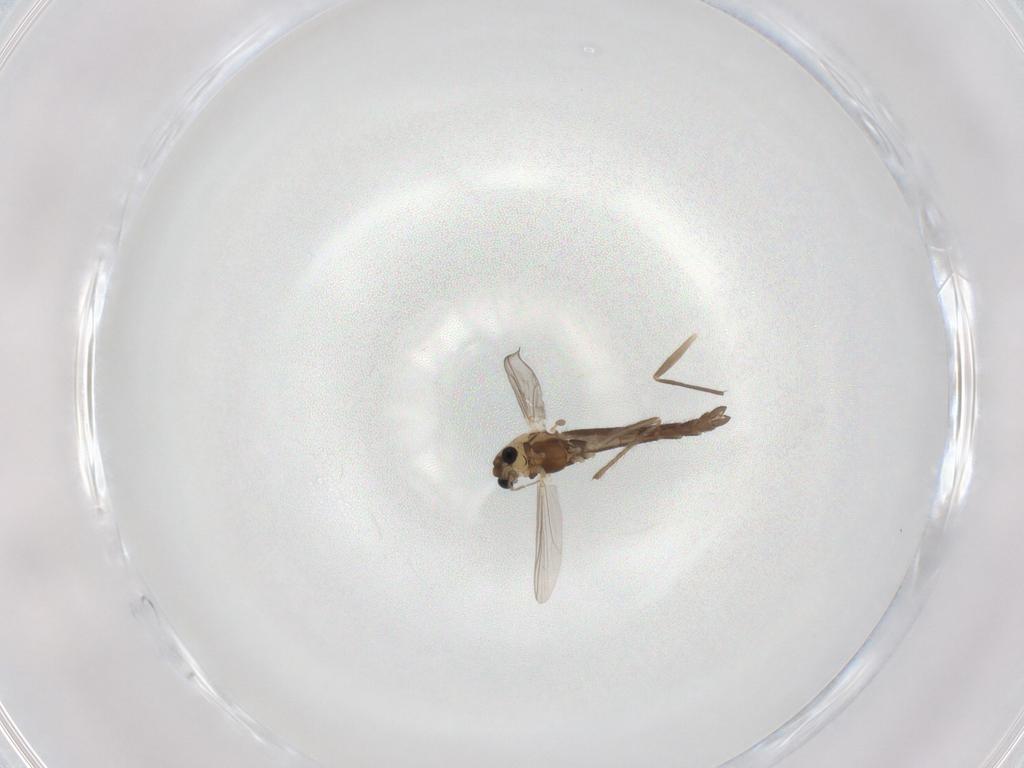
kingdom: Animalia
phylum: Arthropoda
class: Insecta
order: Diptera
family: Chironomidae
